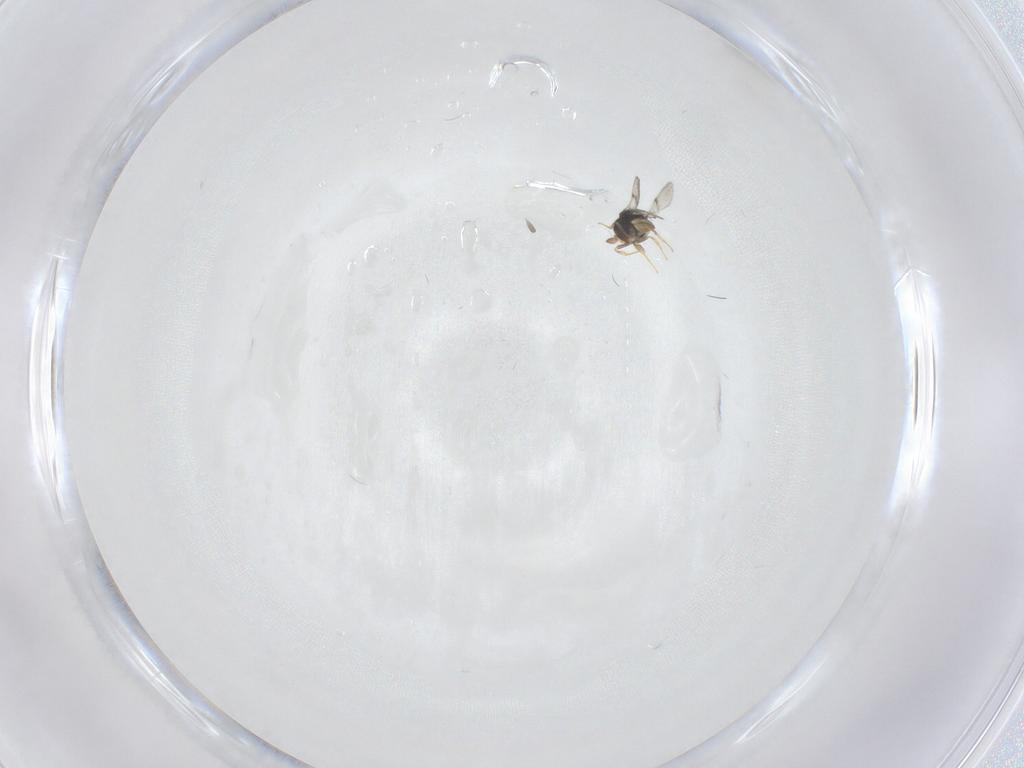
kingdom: Animalia
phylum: Arthropoda
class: Insecta
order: Hymenoptera
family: Scelionidae
